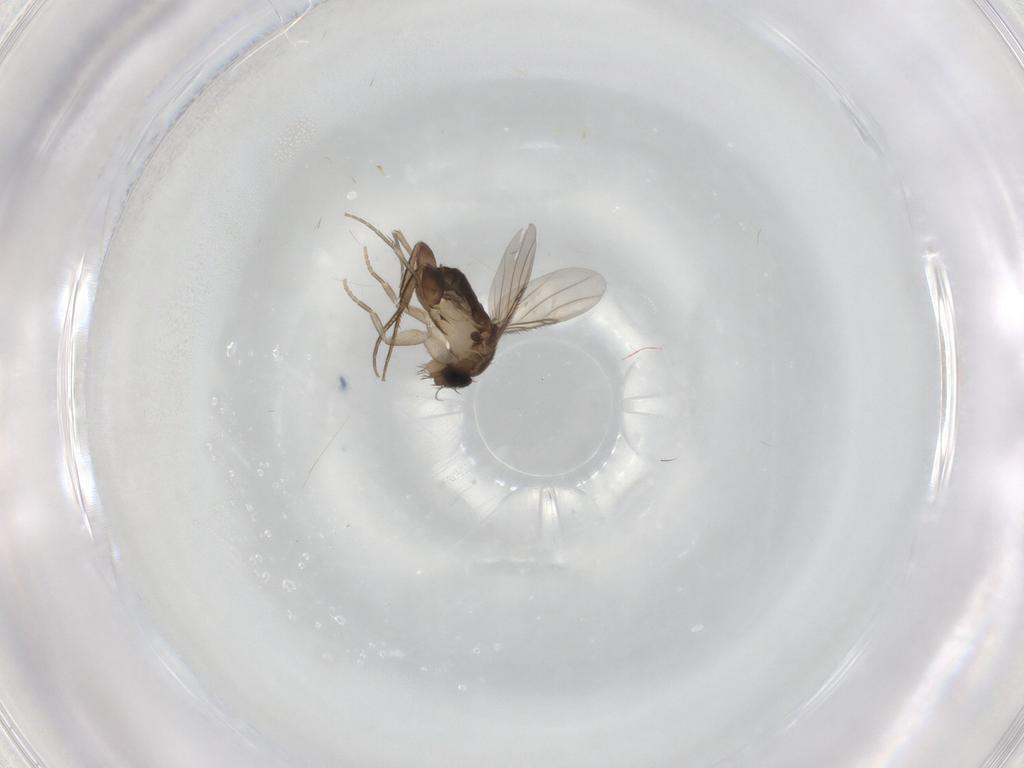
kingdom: Animalia
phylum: Arthropoda
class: Insecta
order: Diptera
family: Phoridae
